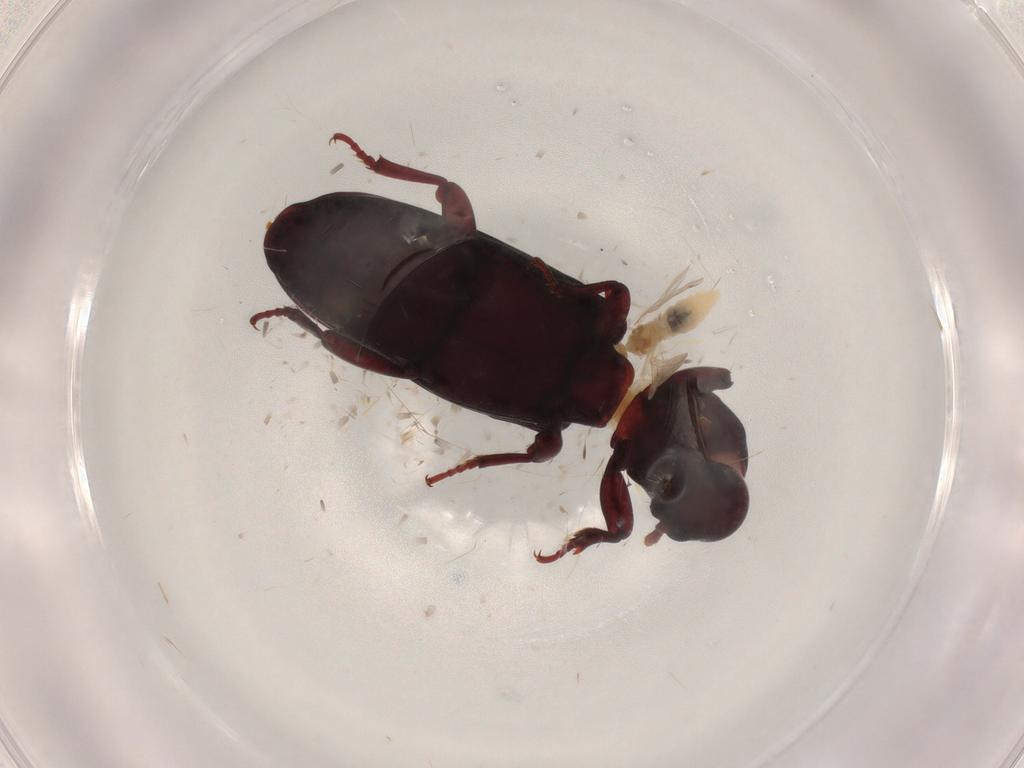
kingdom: Animalia
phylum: Arthropoda
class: Insecta
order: Coleoptera
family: Bothrideridae
